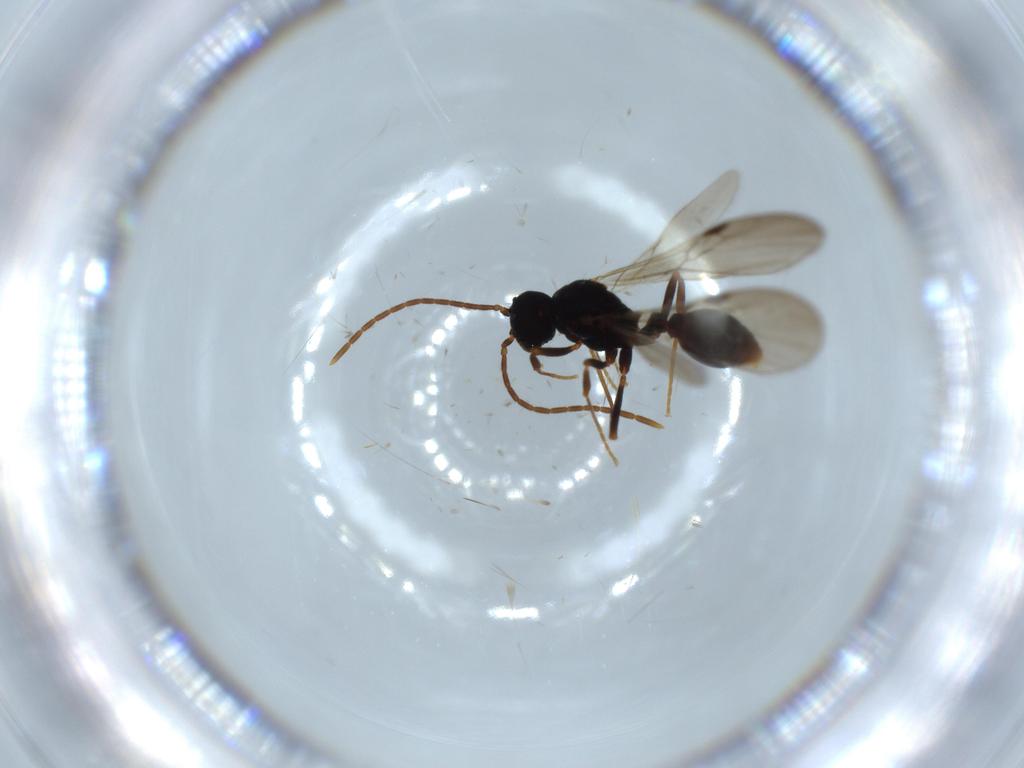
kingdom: Animalia
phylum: Arthropoda
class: Insecta
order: Hymenoptera
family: Formicidae
